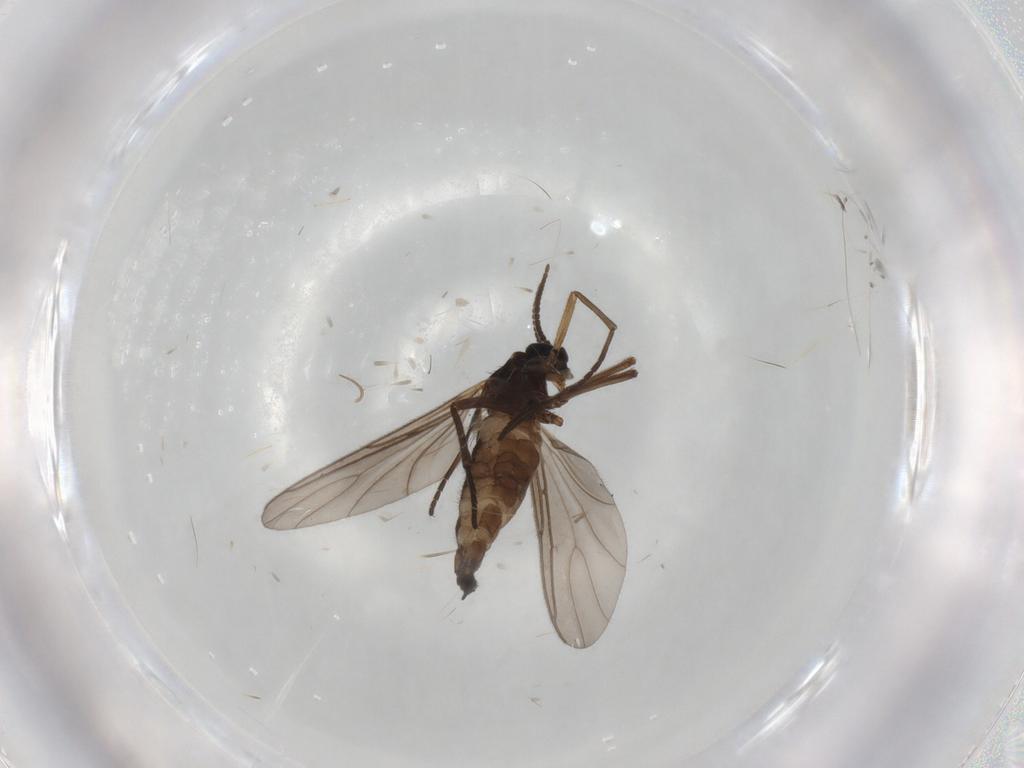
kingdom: Animalia
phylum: Arthropoda
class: Insecta
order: Diptera
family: Sciaridae
